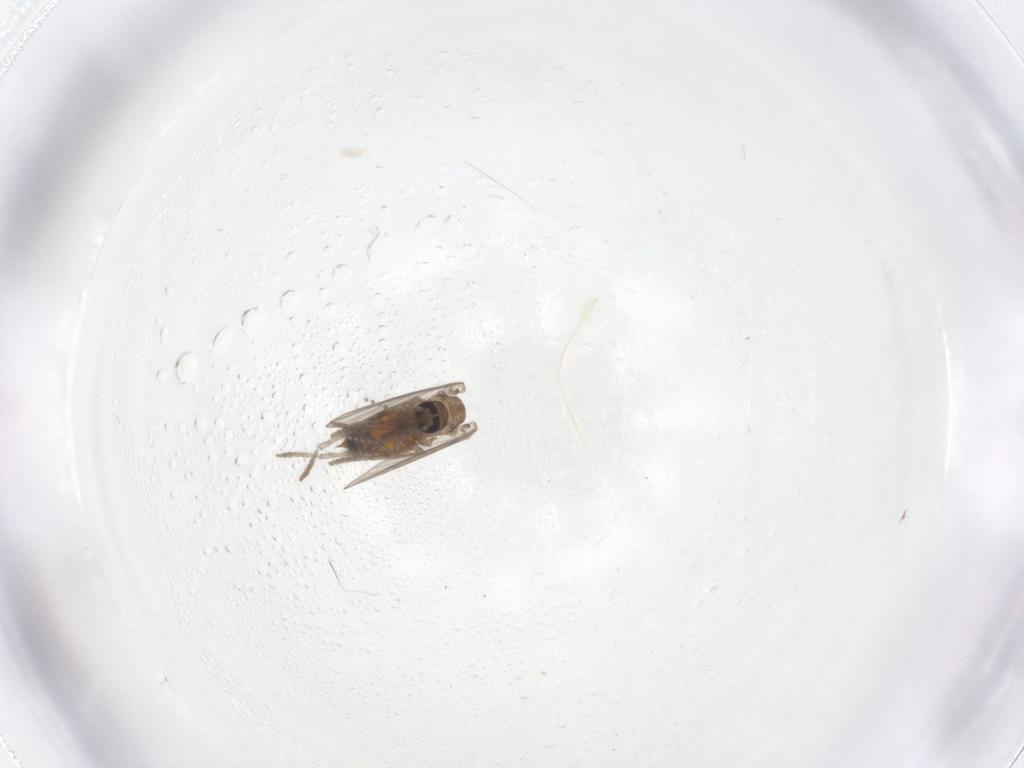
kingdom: Animalia
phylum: Arthropoda
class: Insecta
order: Diptera
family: Psychodidae
